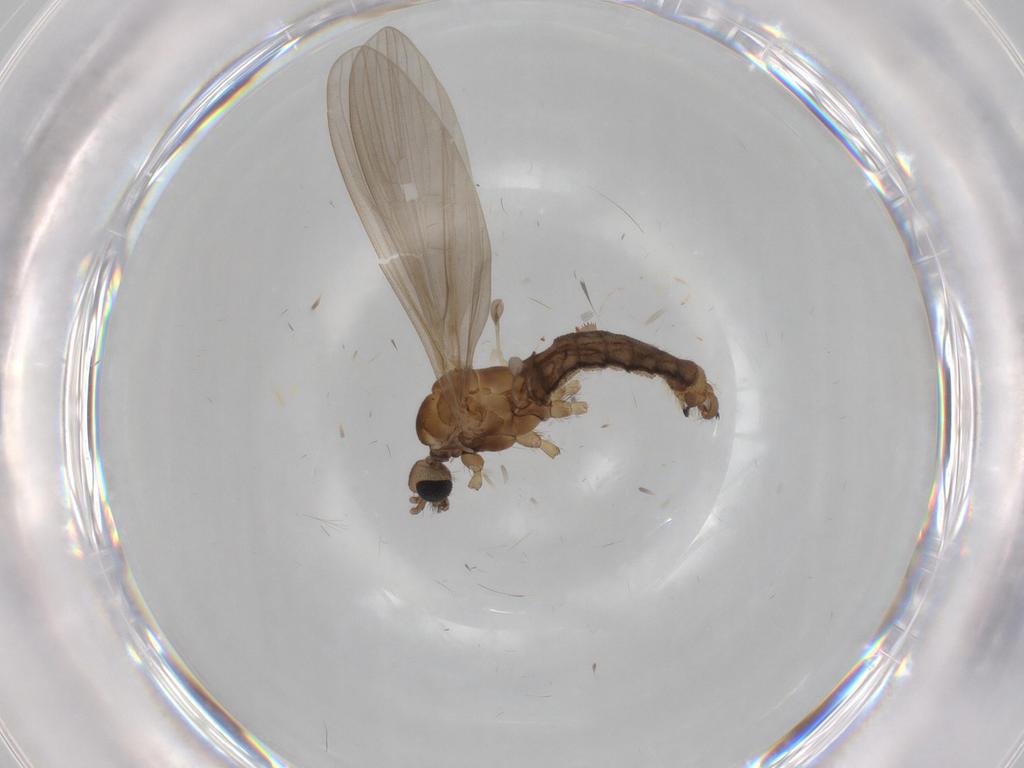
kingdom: Animalia
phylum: Arthropoda
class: Insecta
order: Diptera
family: Cecidomyiidae
